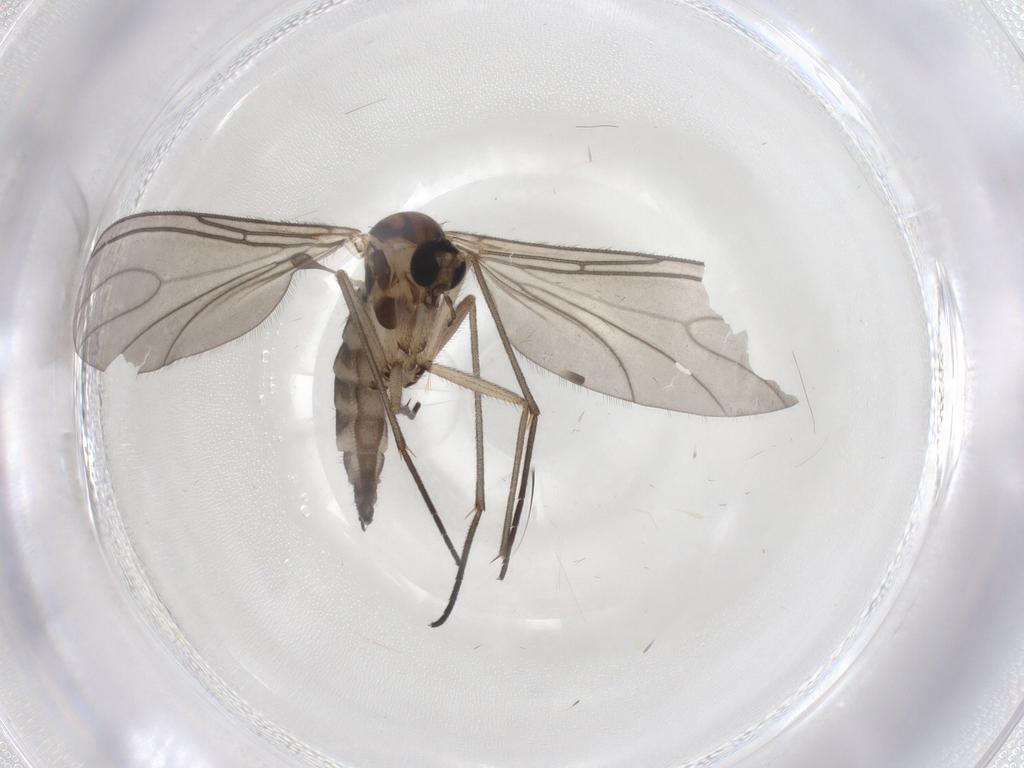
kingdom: Animalia
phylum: Arthropoda
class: Insecta
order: Diptera
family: Sciaridae
